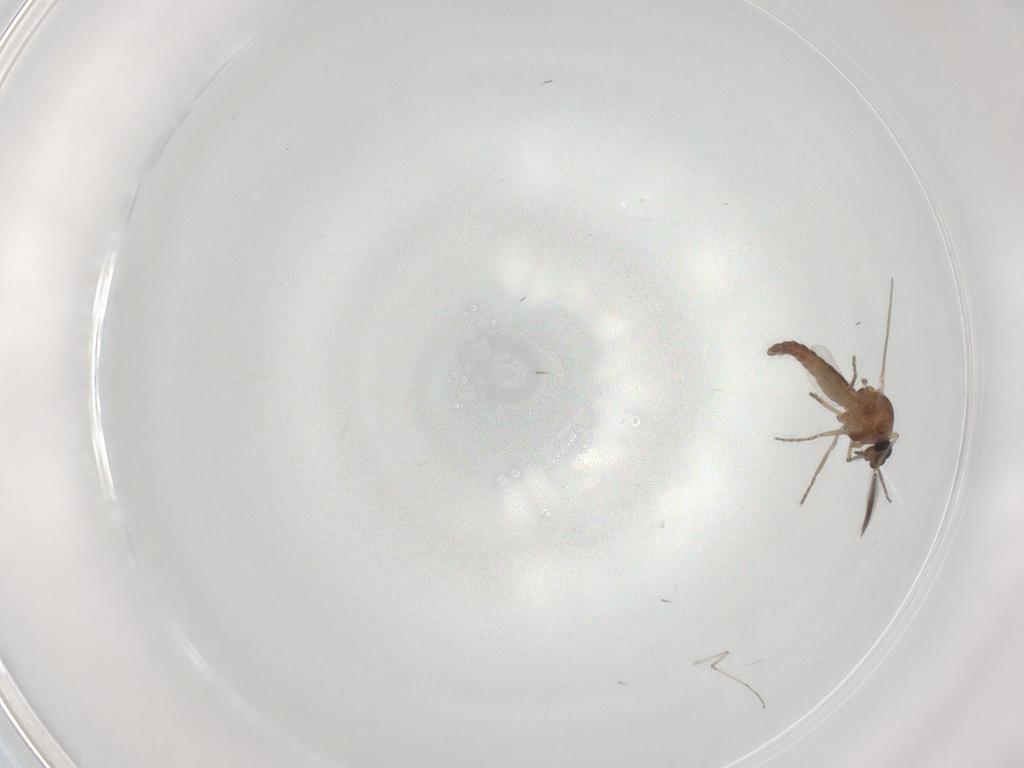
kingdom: Animalia
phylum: Arthropoda
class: Insecta
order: Diptera
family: Ceratopogonidae
